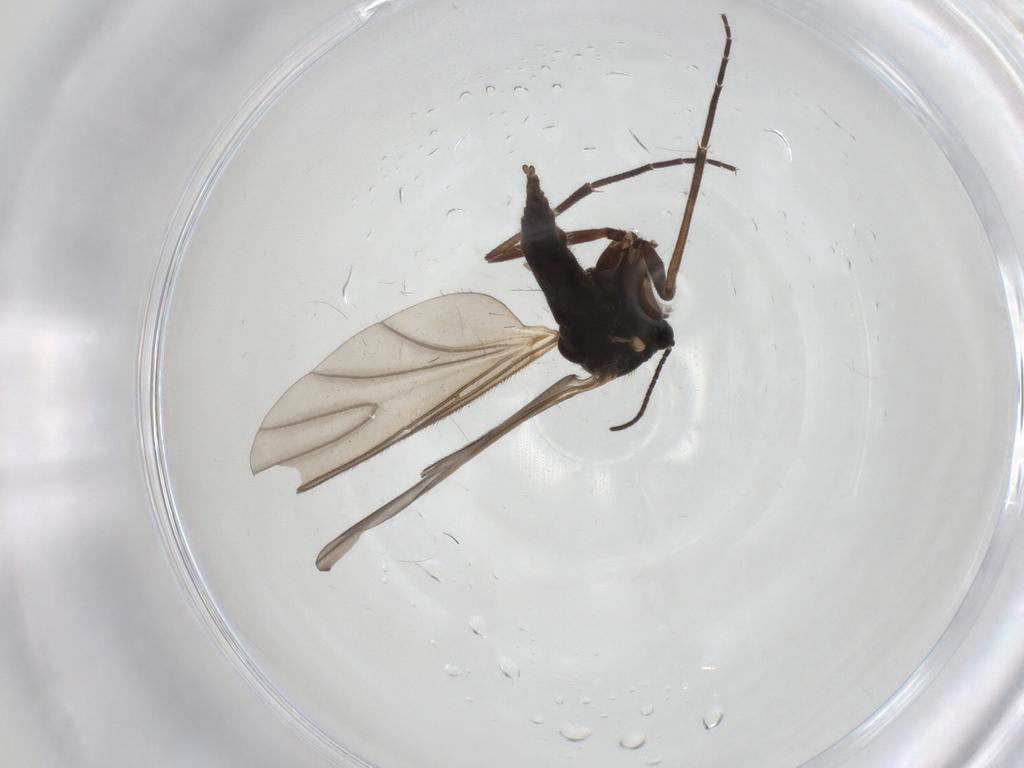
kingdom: Animalia
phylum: Arthropoda
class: Insecta
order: Diptera
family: Sciaridae
